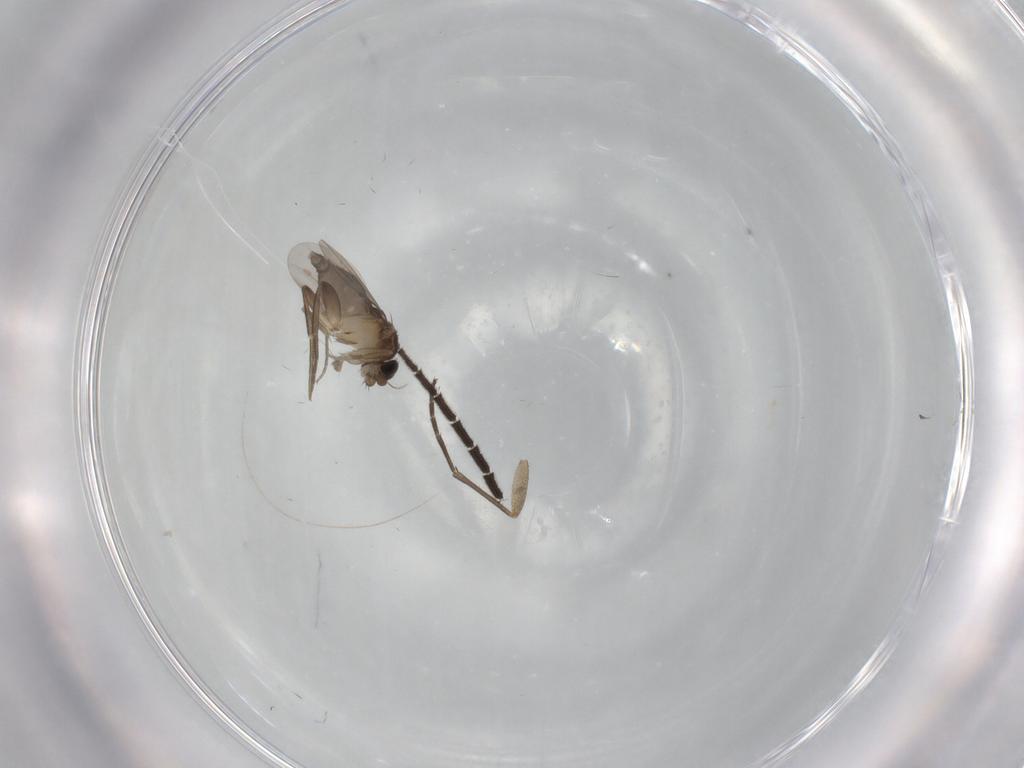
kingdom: Animalia
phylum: Arthropoda
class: Insecta
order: Diptera
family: Phoridae
